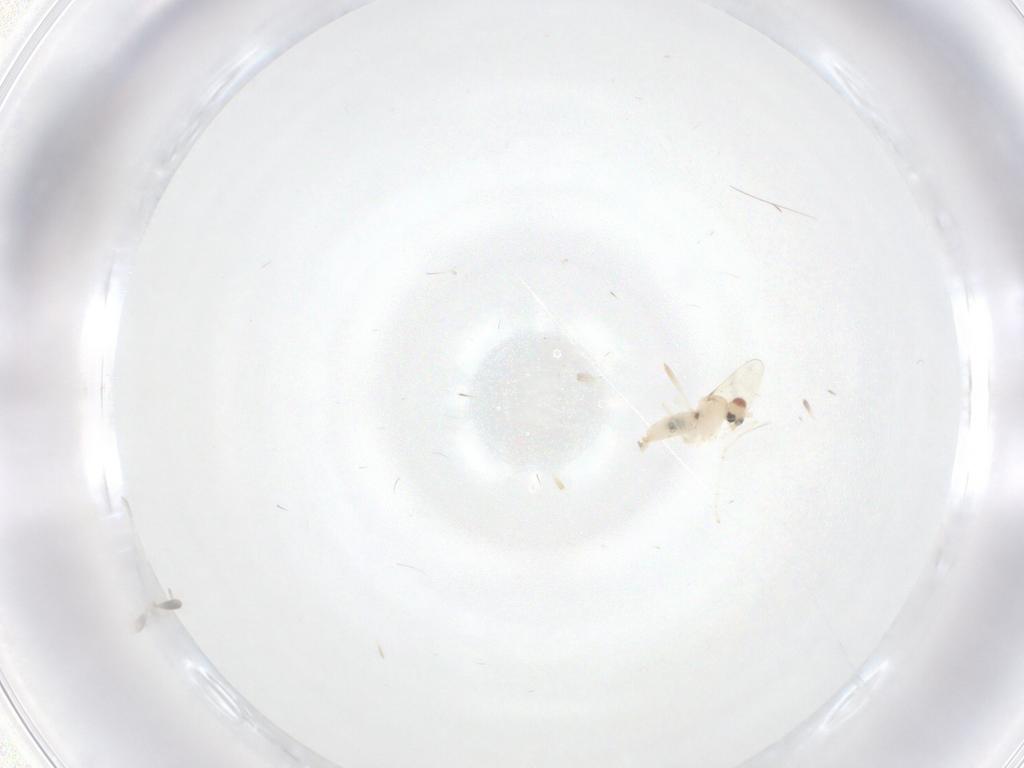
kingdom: Animalia
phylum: Arthropoda
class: Insecta
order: Diptera
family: Cecidomyiidae
